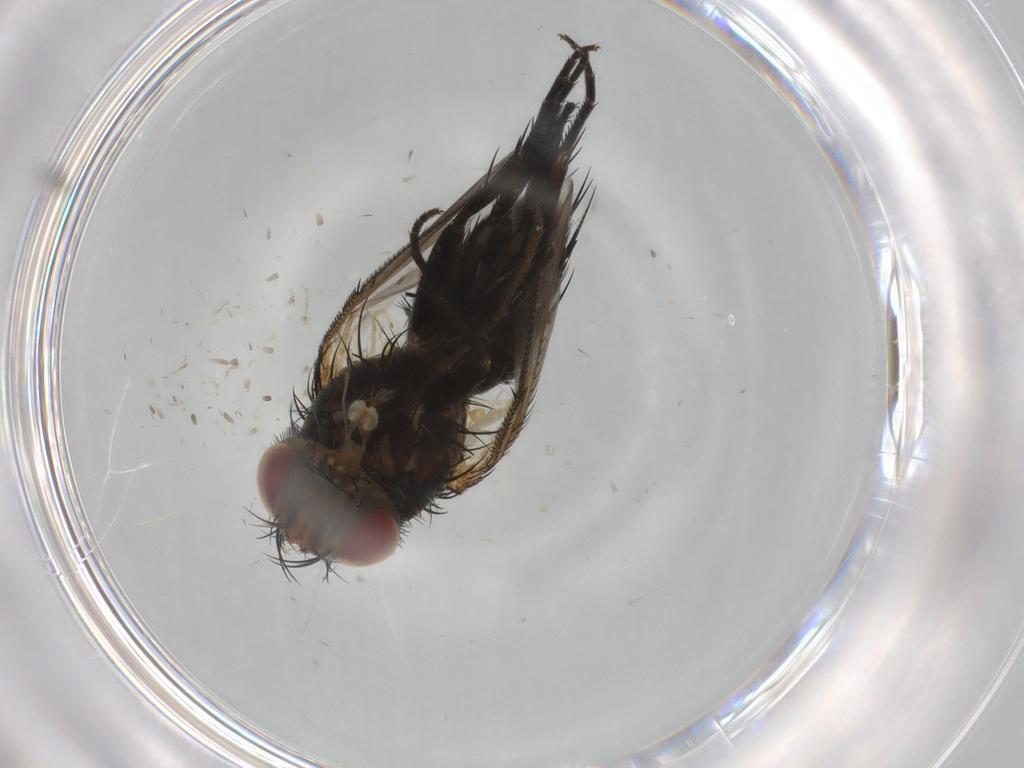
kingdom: Animalia
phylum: Arthropoda
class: Insecta
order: Diptera
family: Tachinidae
